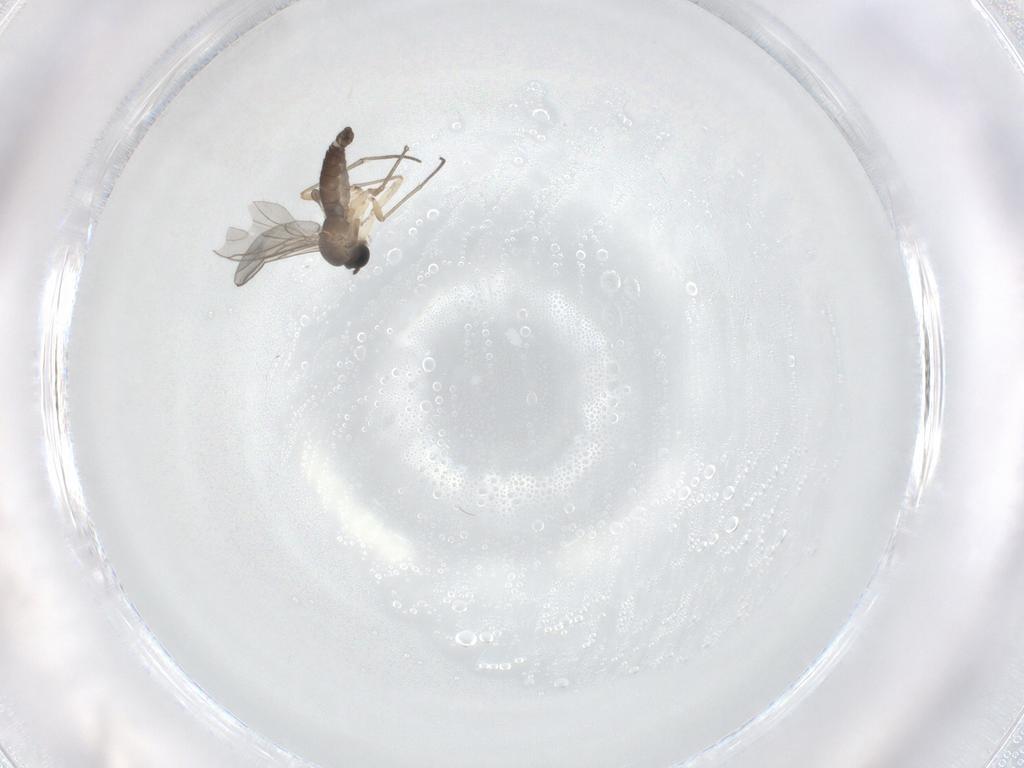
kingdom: Animalia
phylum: Arthropoda
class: Insecta
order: Diptera
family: Sciaridae
